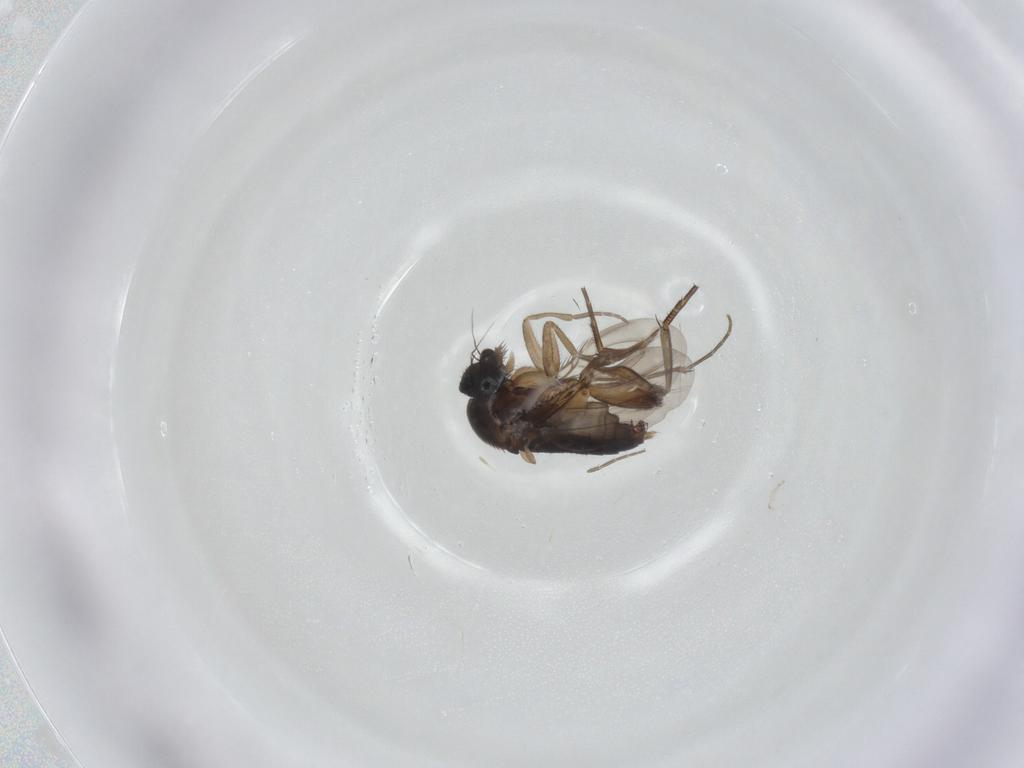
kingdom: Animalia
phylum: Arthropoda
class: Insecta
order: Diptera
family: Phoridae
